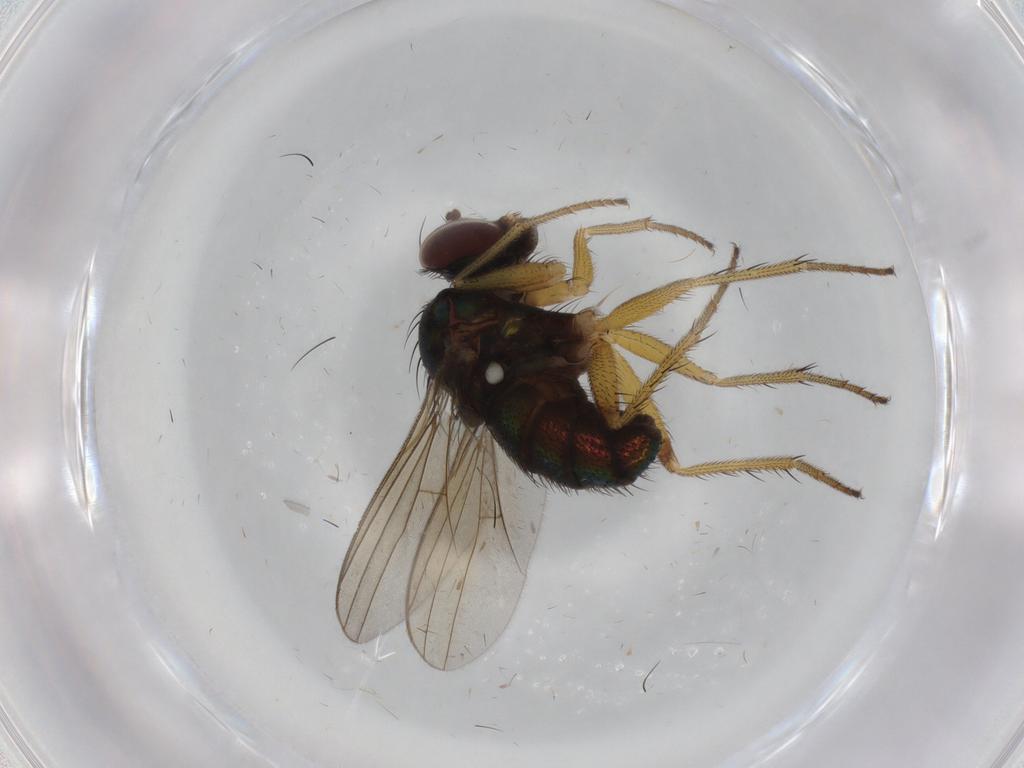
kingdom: Animalia
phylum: Arthropoda
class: Insecta
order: Diptera
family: Dolichopodidae
